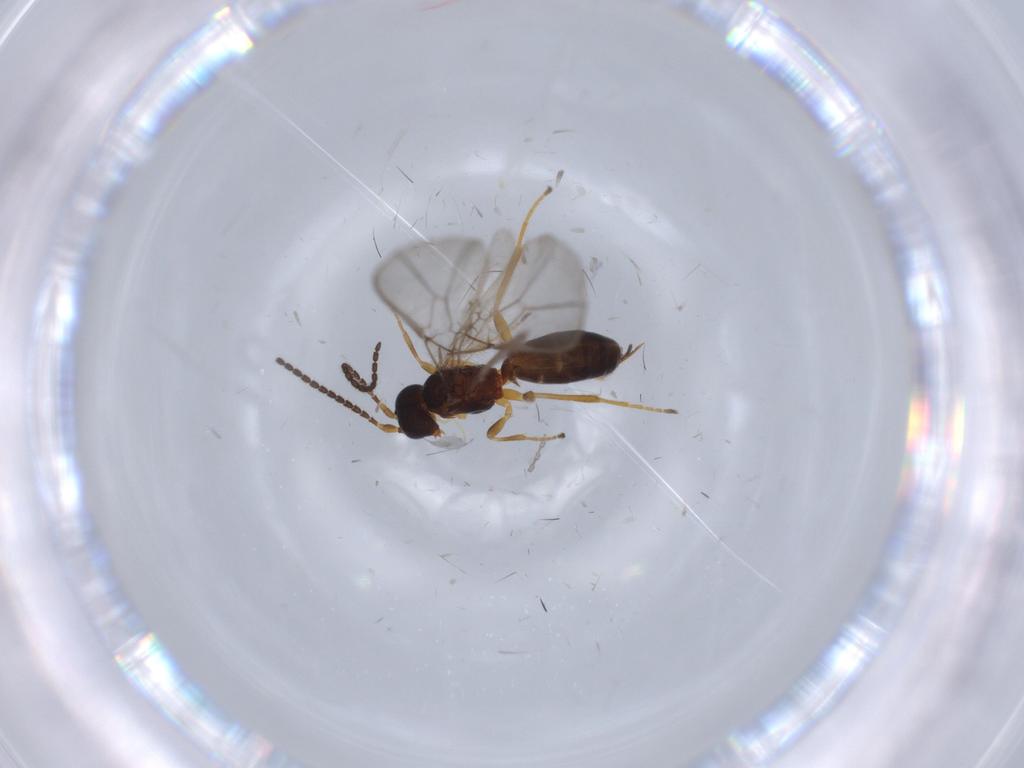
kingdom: Animalia
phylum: Arthropoda
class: Insecta
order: Hymenoptera
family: Braconidae
